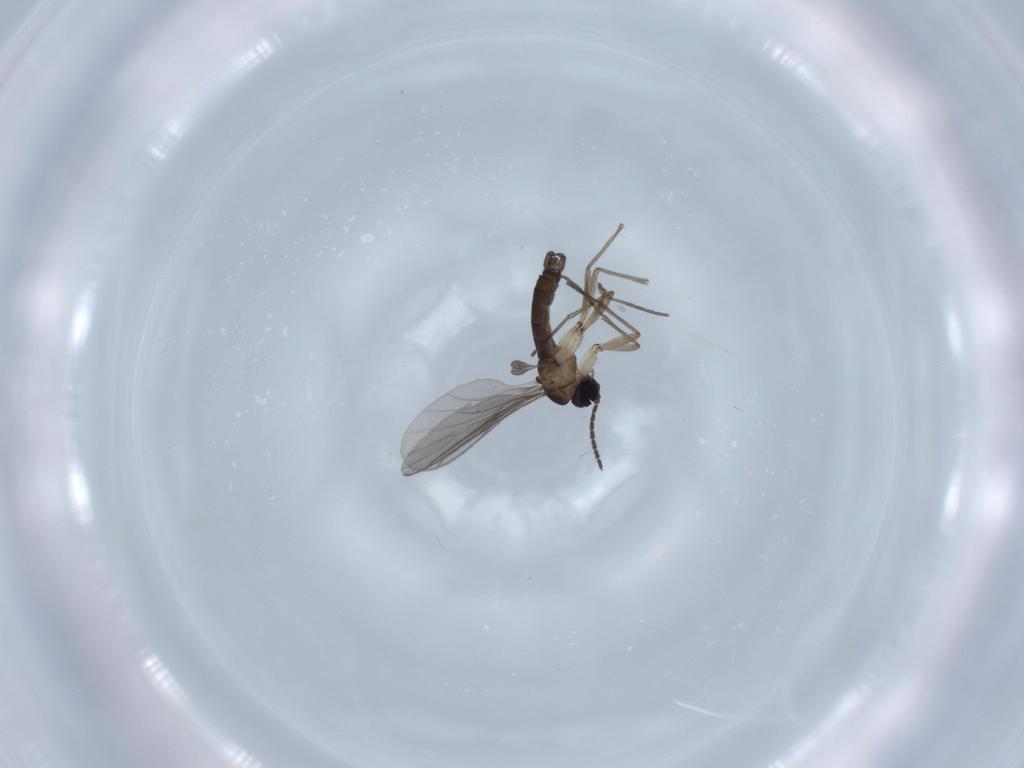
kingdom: Animalia
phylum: Arthropoda
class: Insecta
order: Diptera
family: Sciaridae
